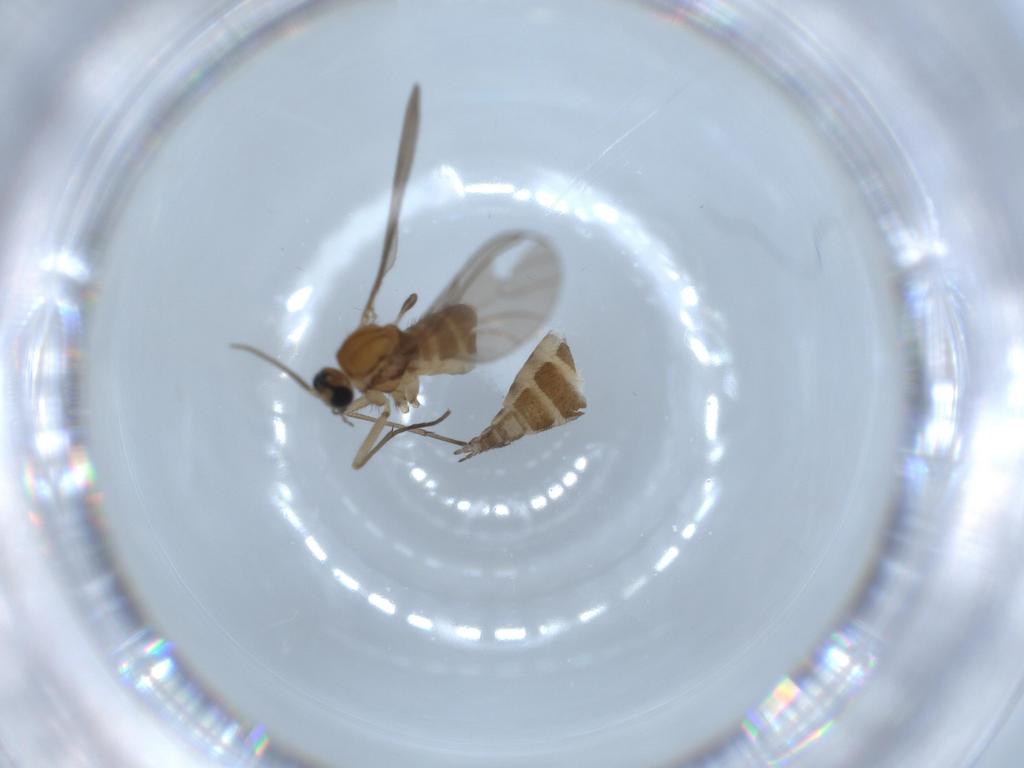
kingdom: Animalia
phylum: Arthropoda
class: Insecta
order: Diptera
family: Sciaridae
